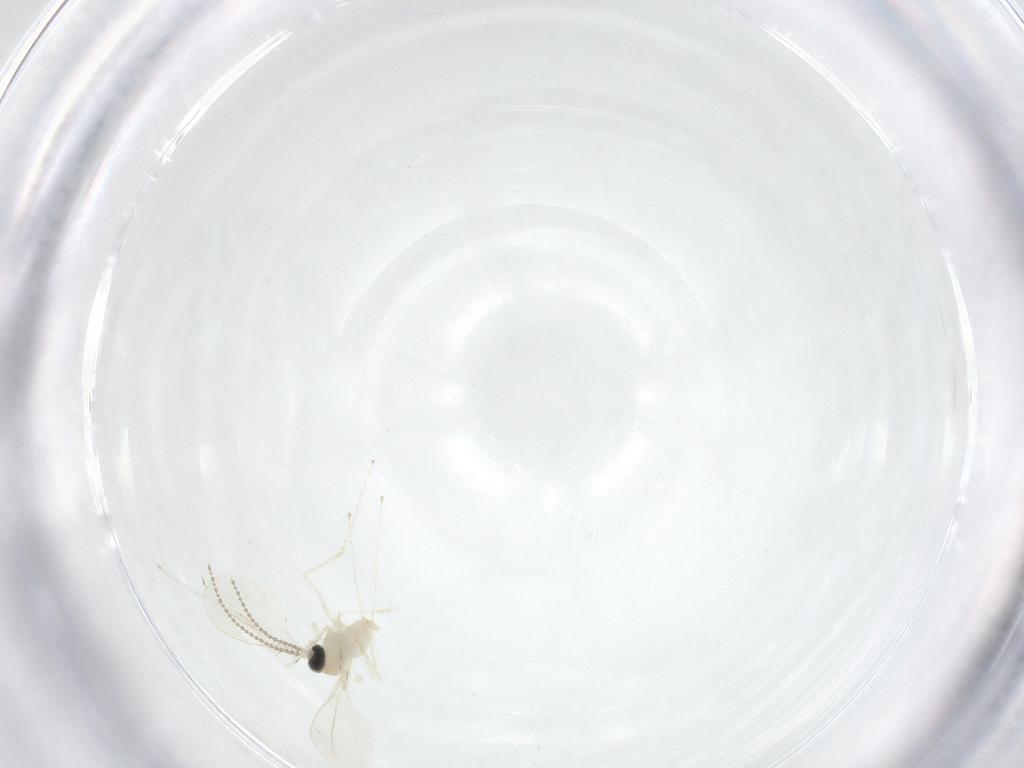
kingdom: Animalia
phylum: Arthropoda
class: Insecta
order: Diptera
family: Cecidomyiidae
